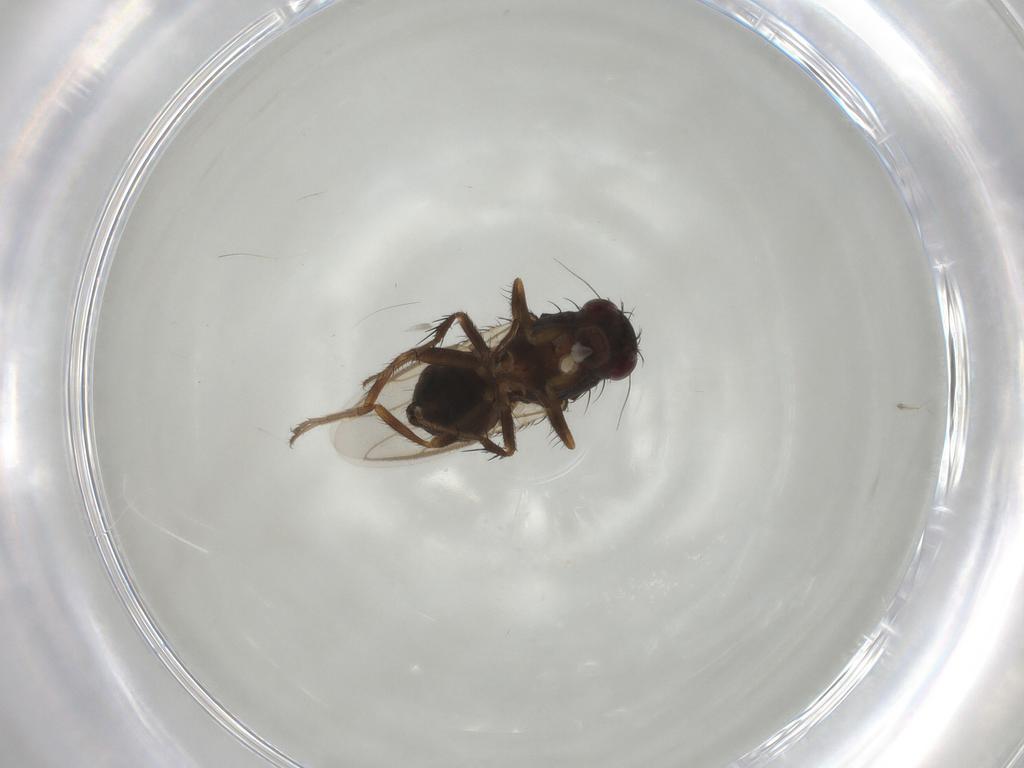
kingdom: Animalia
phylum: Arthropoda
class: Insecta
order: Diptera
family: Sphaeroceridae
